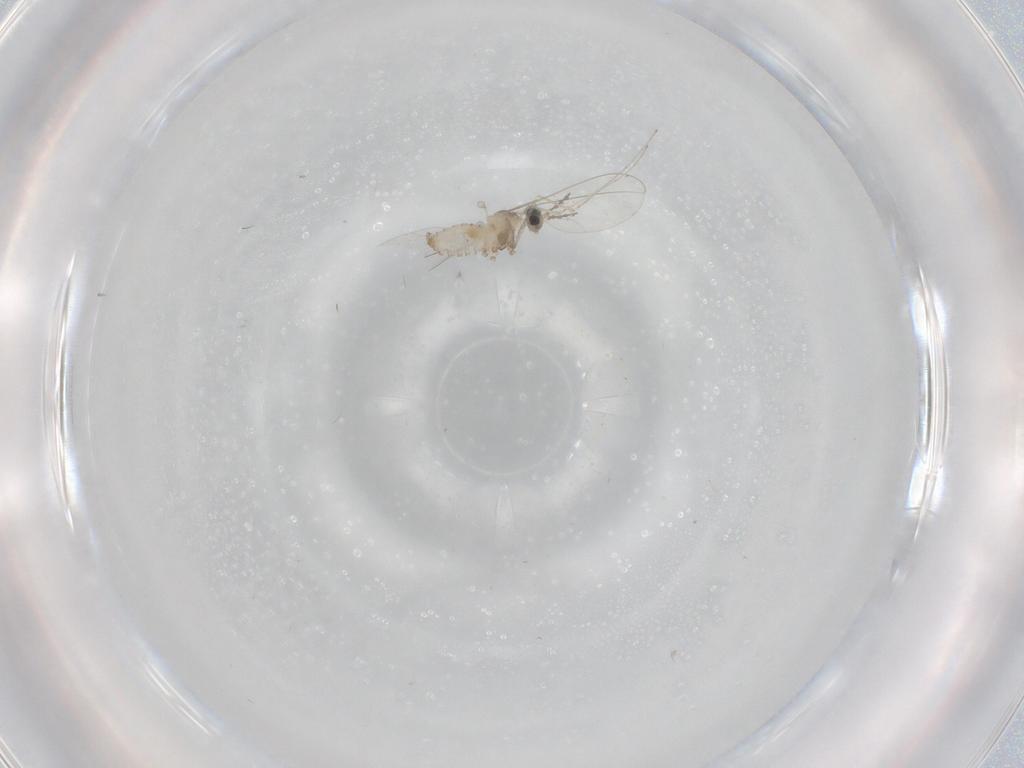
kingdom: Animalia
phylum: Arthropoda
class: Insecta
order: Diptera
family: Cecidomyiidae
